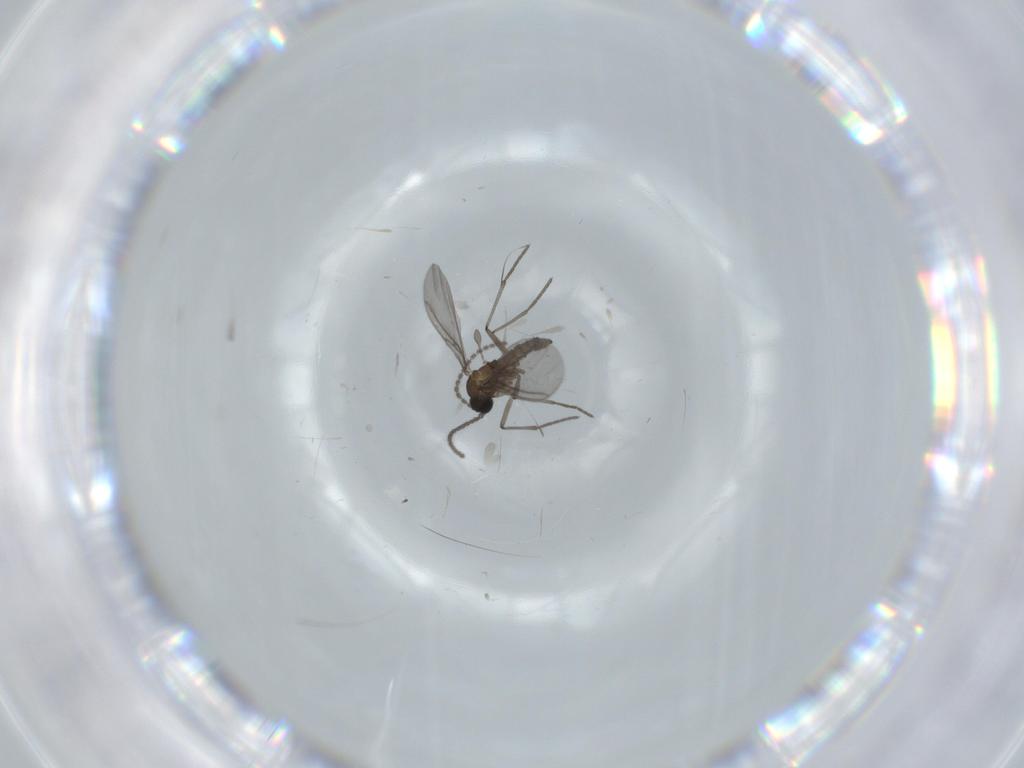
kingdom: Animalia
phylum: Arthropoda
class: Insecta
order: Diptera
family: Sciaridae
